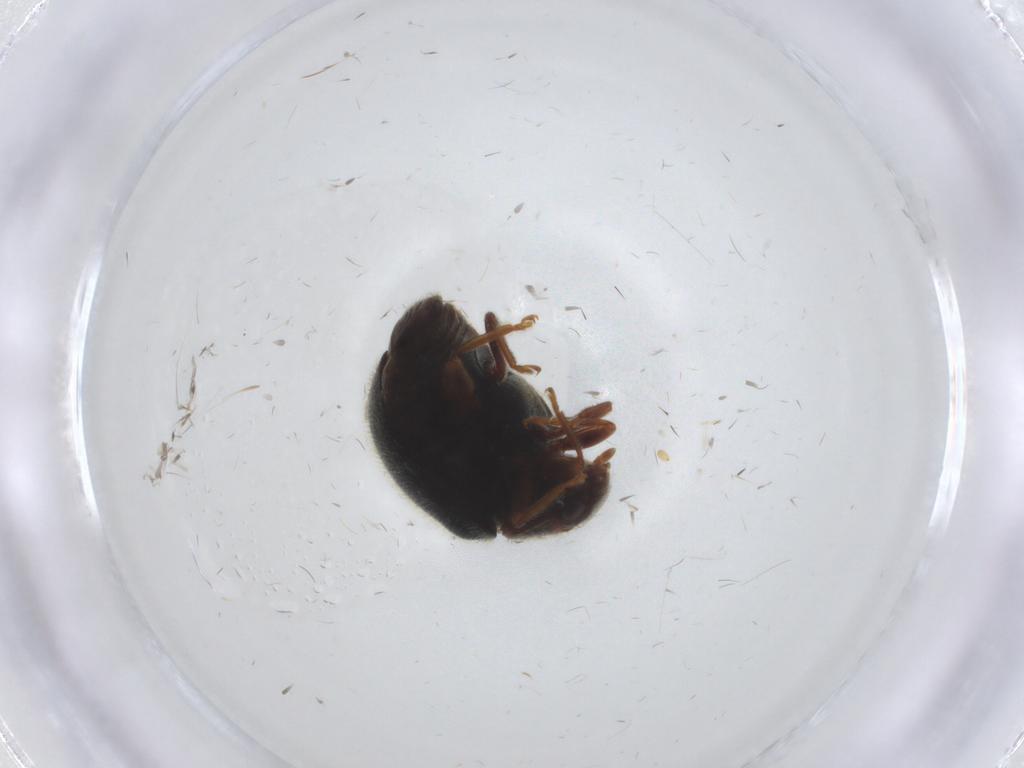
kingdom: Animalia
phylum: Arthropoda
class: Insecta
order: Coleoptera
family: Coccinellidae
